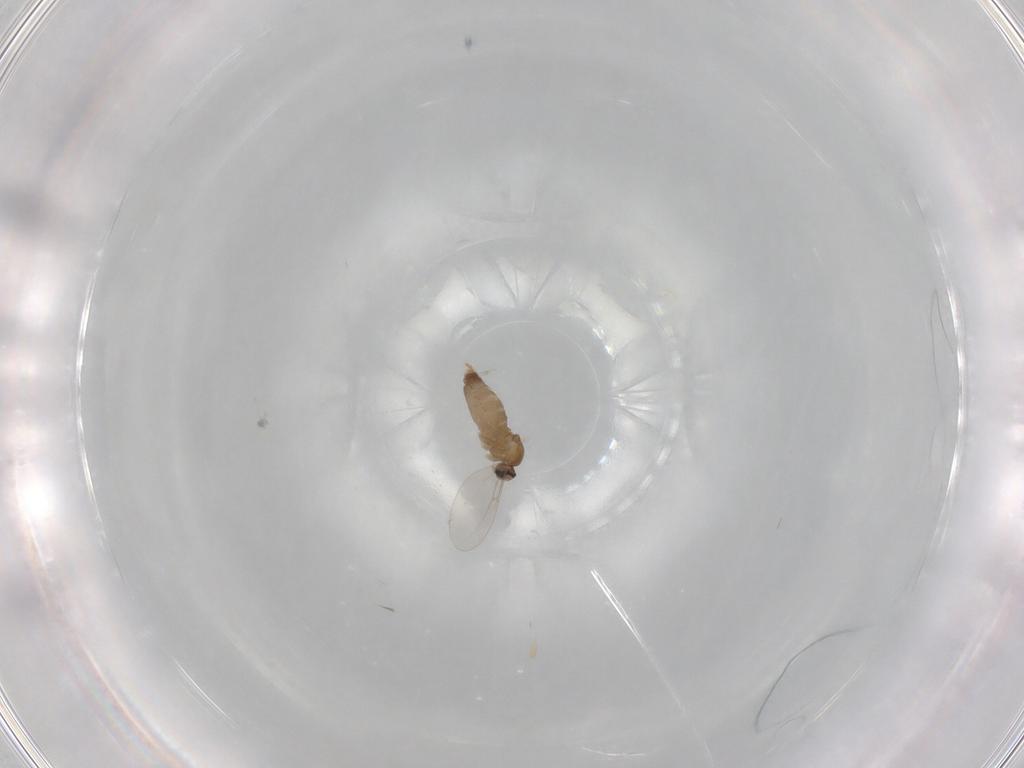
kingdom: Animalia
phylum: Arthropoda
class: Insecta
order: Diptera
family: Cecidomyiidae
